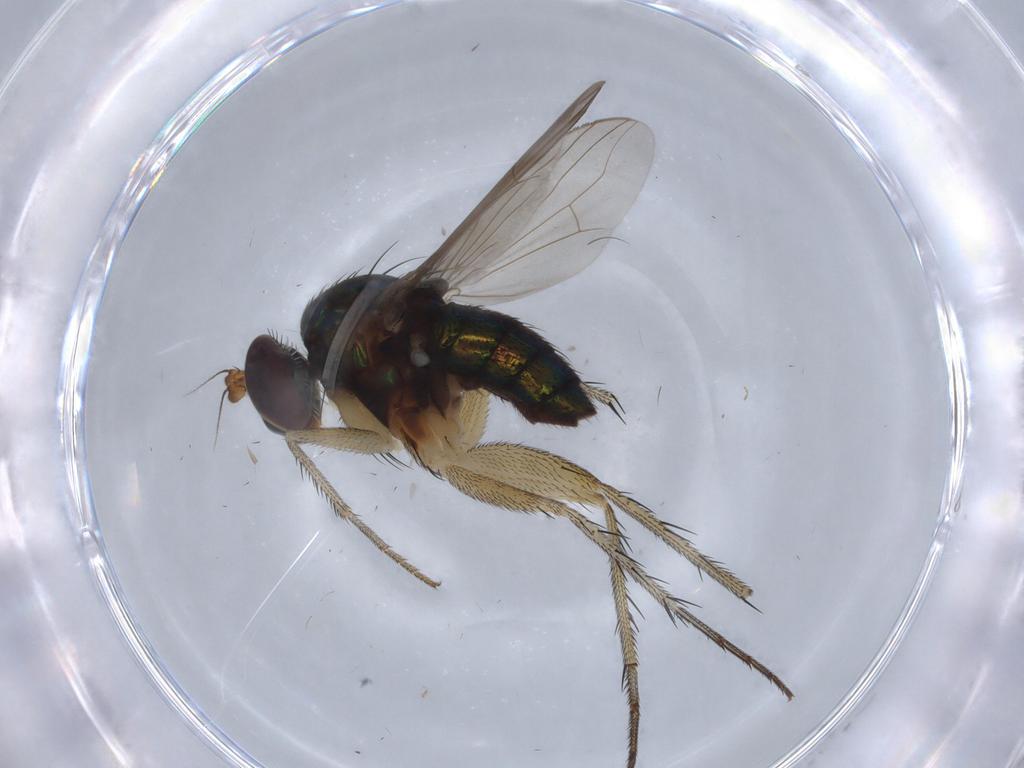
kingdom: Animalia
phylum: Arthropoda
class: Insecta
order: Diptera
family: Dolichopodidae
